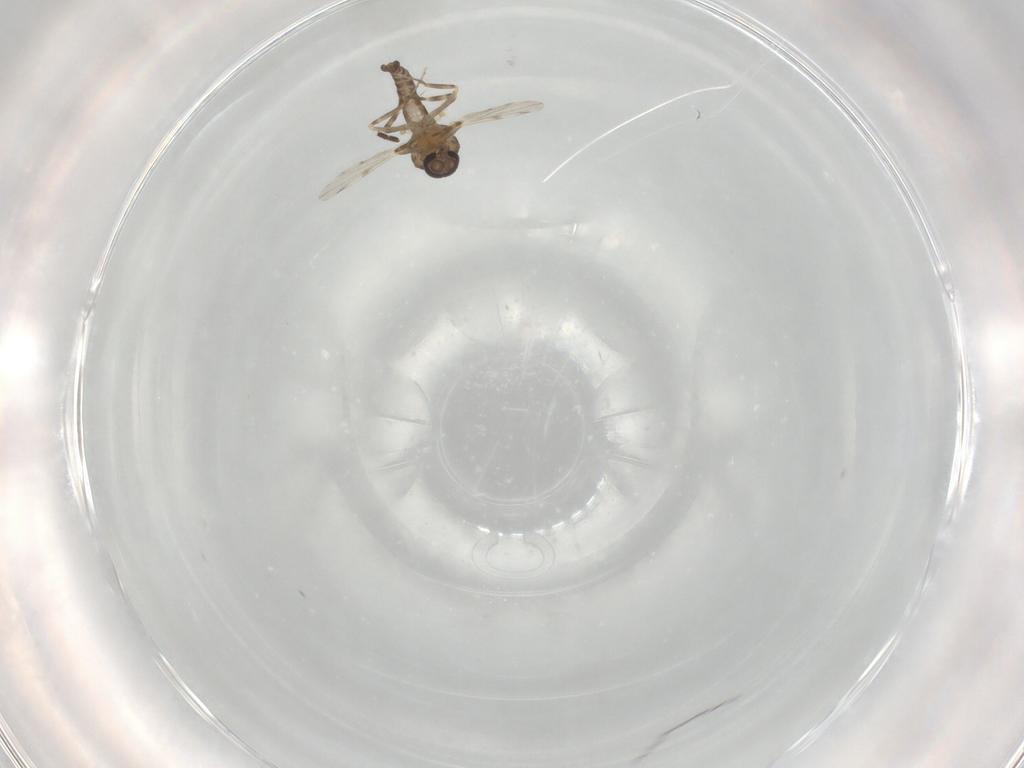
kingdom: Animalia
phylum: Arthropoda
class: Insecta
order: Diptera
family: Ceratopogonidae
